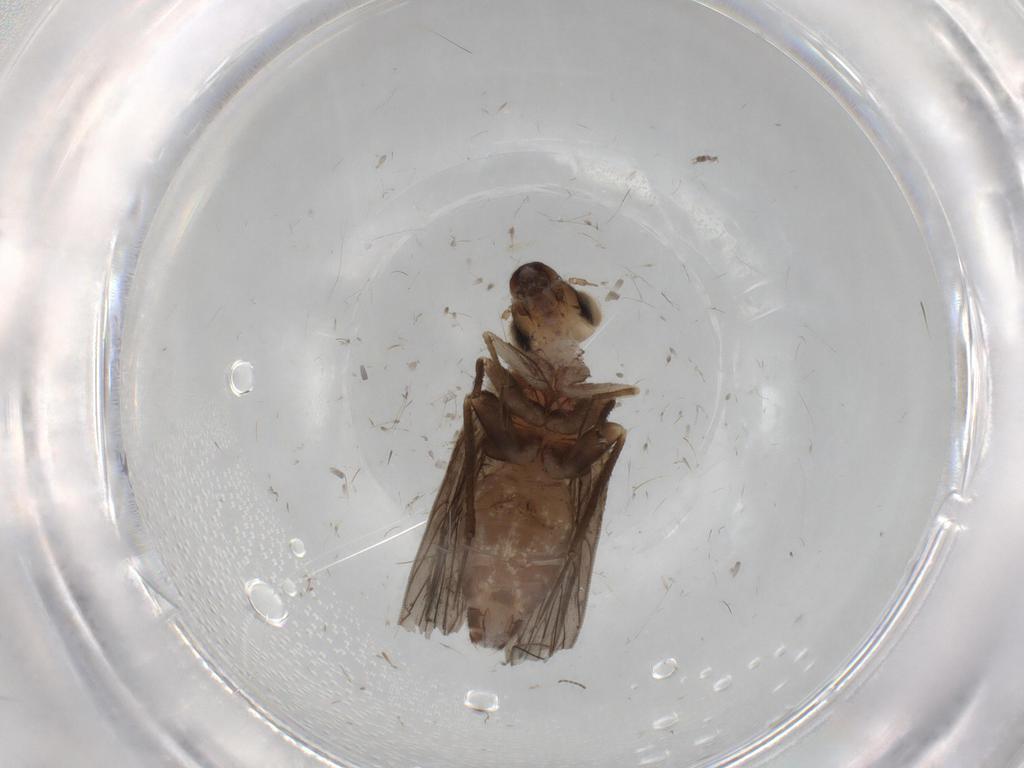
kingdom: Animalia
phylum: Arthropoda
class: Insecta
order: Psocodea
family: Lepidopsocidae
